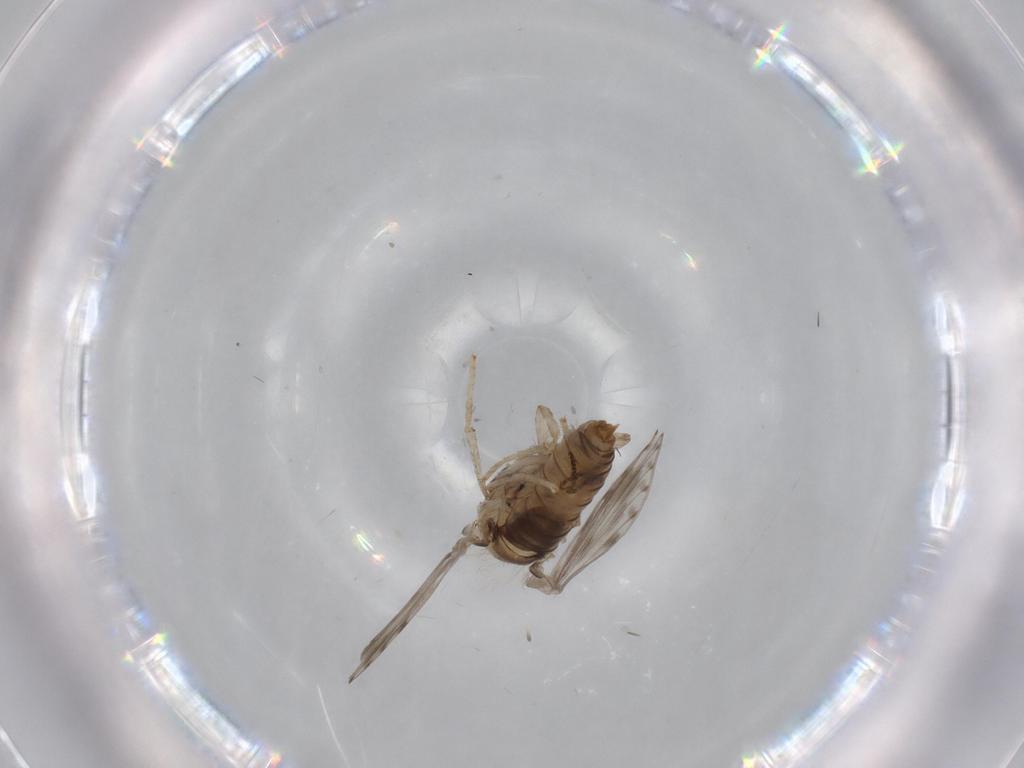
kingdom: Animalia
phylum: Arthropoda
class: Insecta
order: Diptera
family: Psychodidae
